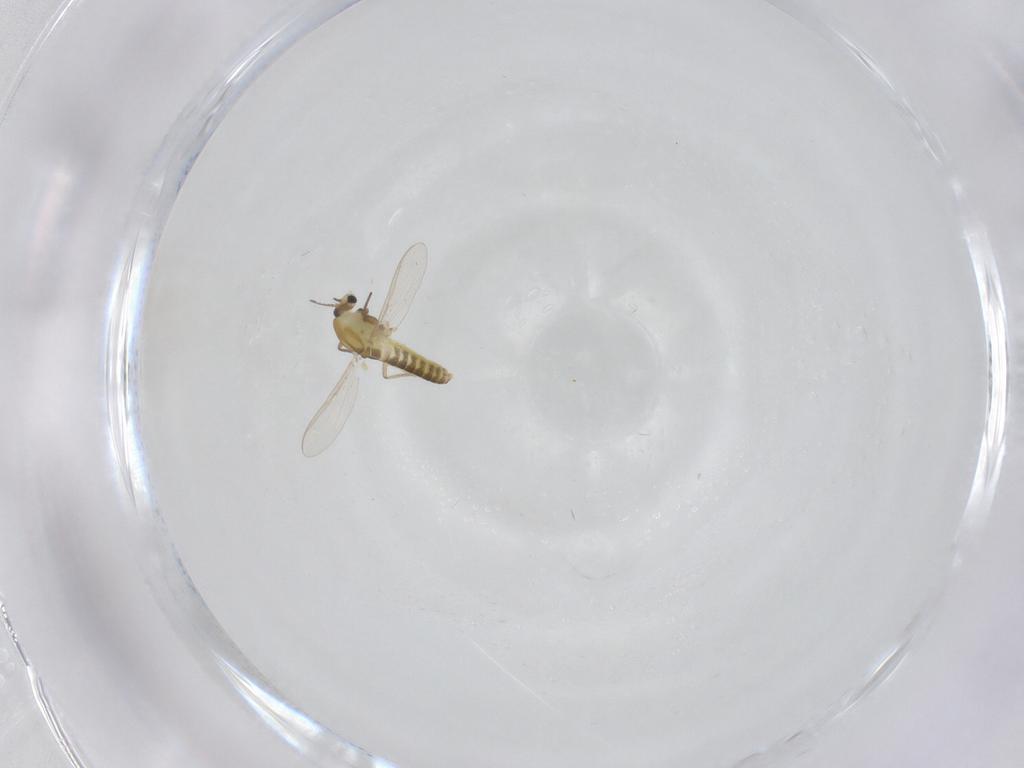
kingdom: Animalia
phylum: Arthropoda
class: Insecta
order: Diptera
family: Chironomidae
